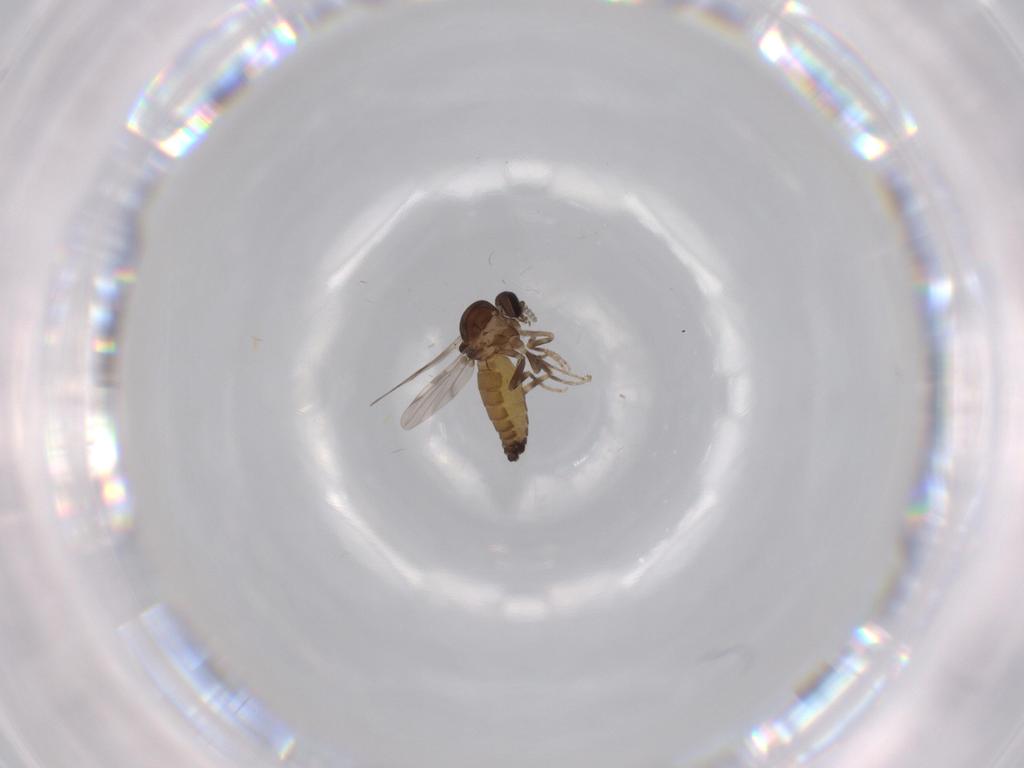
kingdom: Animalia
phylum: Arthropoda
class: Insecta
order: Diptera
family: Ceratopogonidae
